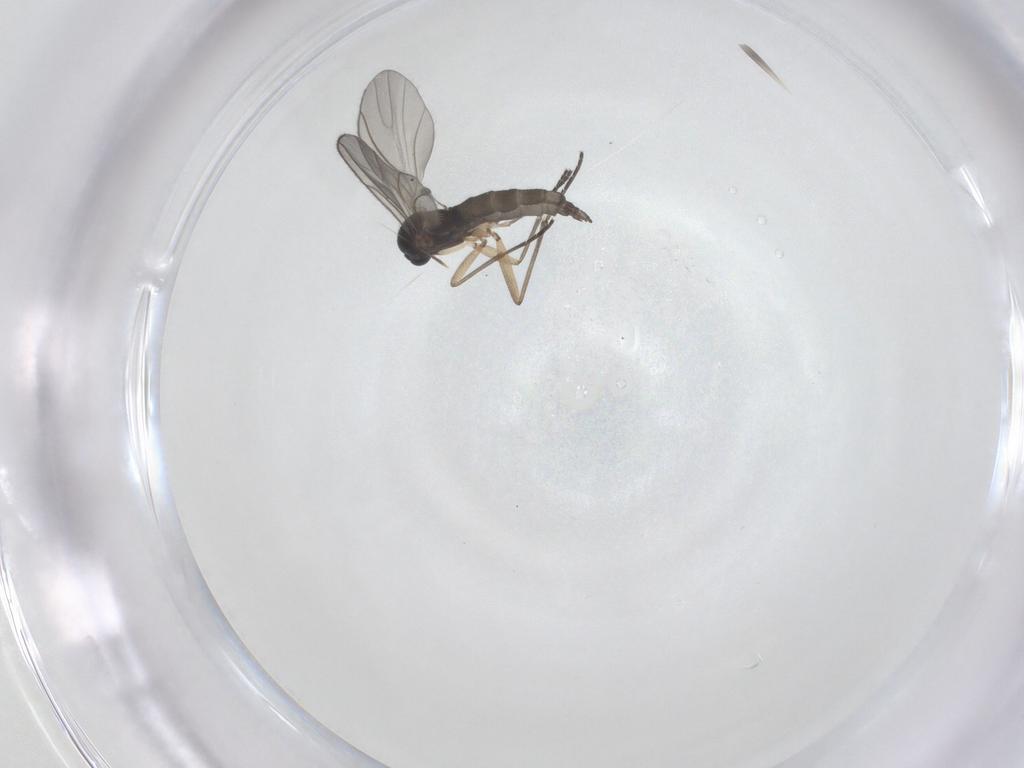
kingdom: Animalia
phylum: Arthropoda
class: Insecta
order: Diptera
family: Sciaridae
